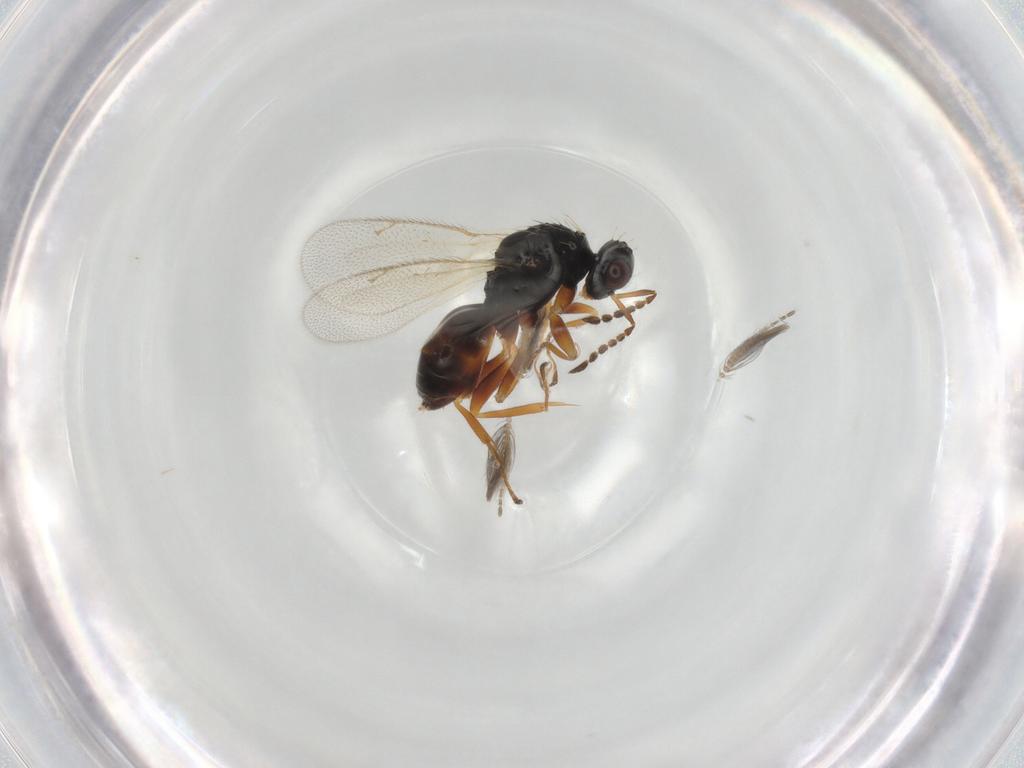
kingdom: Animalia
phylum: Arthropoda
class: Insecta
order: Hymenoptera
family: Eulophidae
